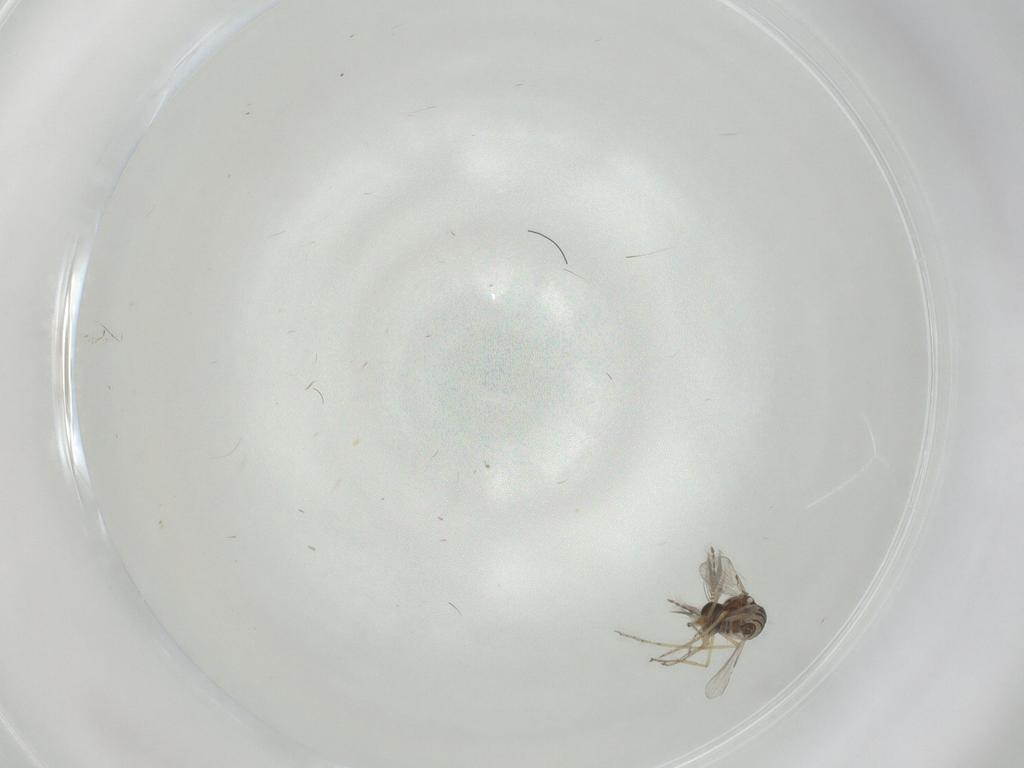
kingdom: Animalia
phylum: Arthropoda
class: Insecta
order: Diptera
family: Ceratopogonidae
